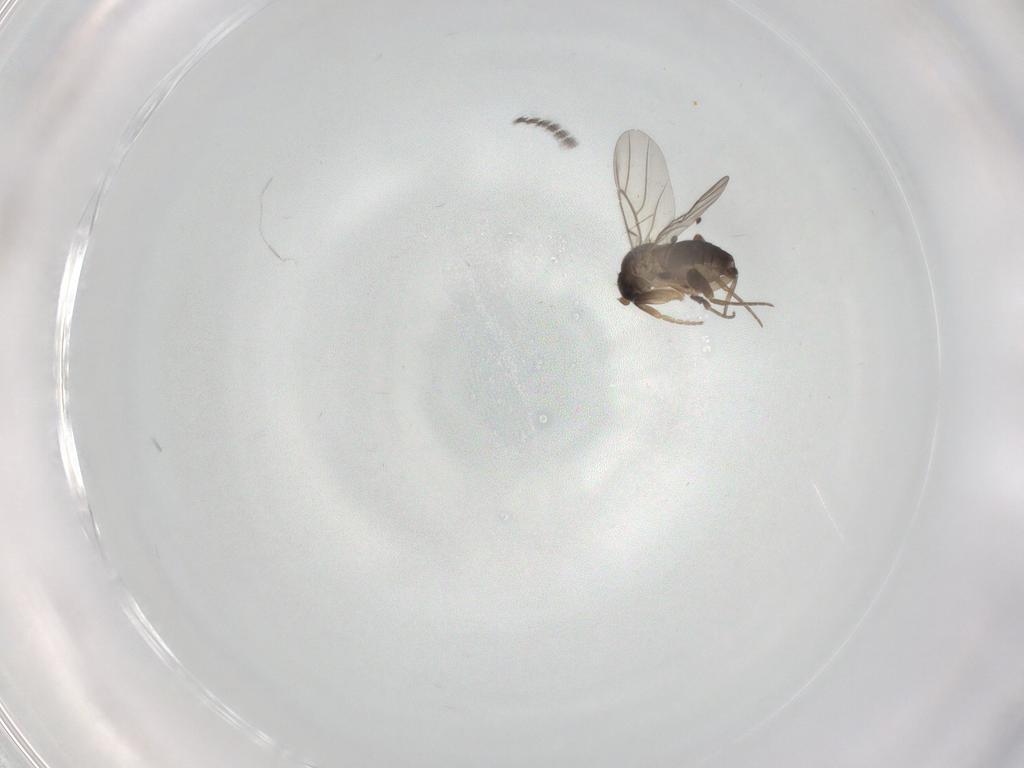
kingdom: Animalia
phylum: Arthropoda
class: Insecta
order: Diptera
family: Phoridae
